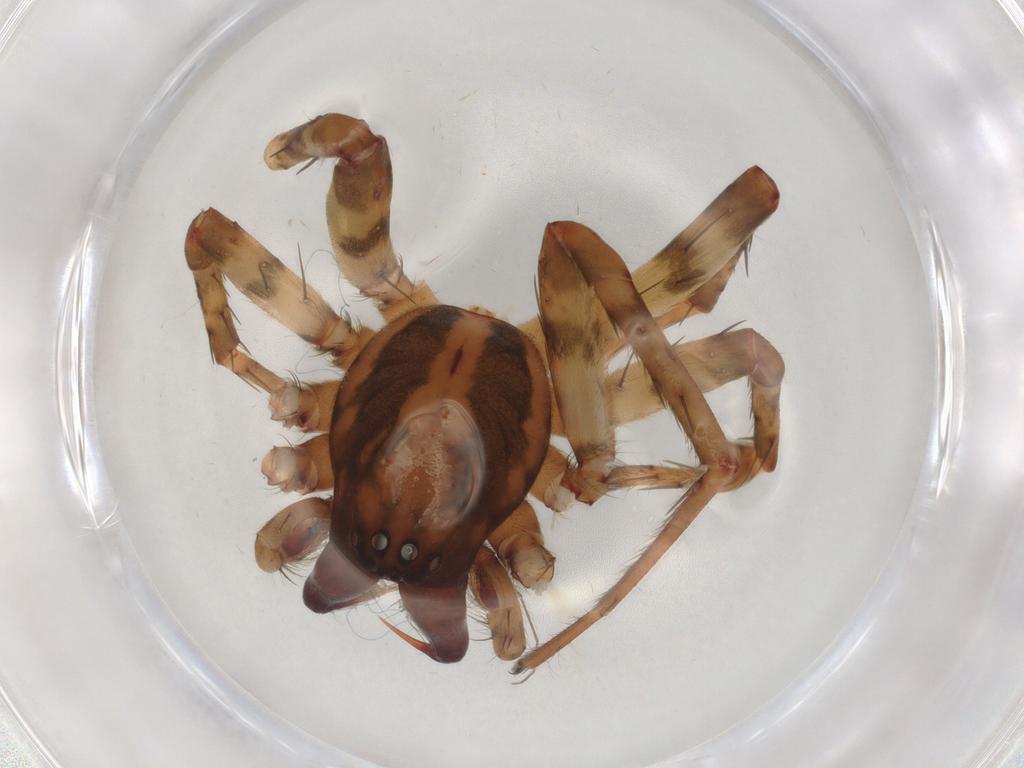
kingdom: Animalia
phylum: Arthropoda
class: Arachnida
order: Araneae
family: Anyphaenidae
